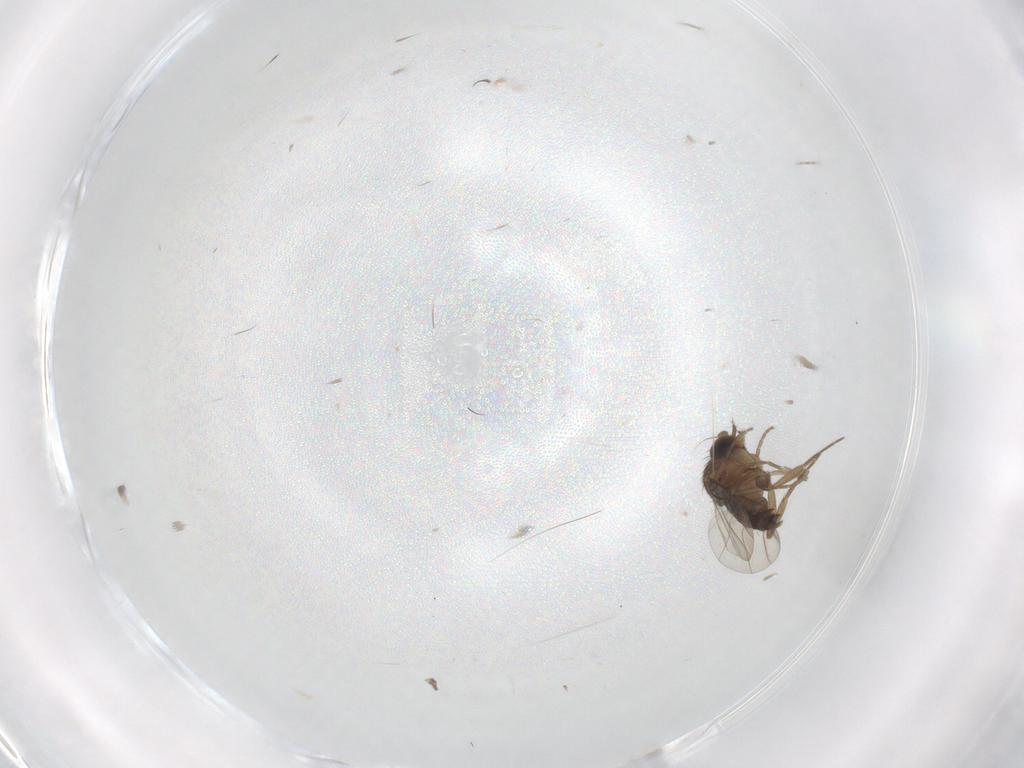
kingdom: Animalia
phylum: Arthropoda
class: Insecta
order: Diptera
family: Phoridae
